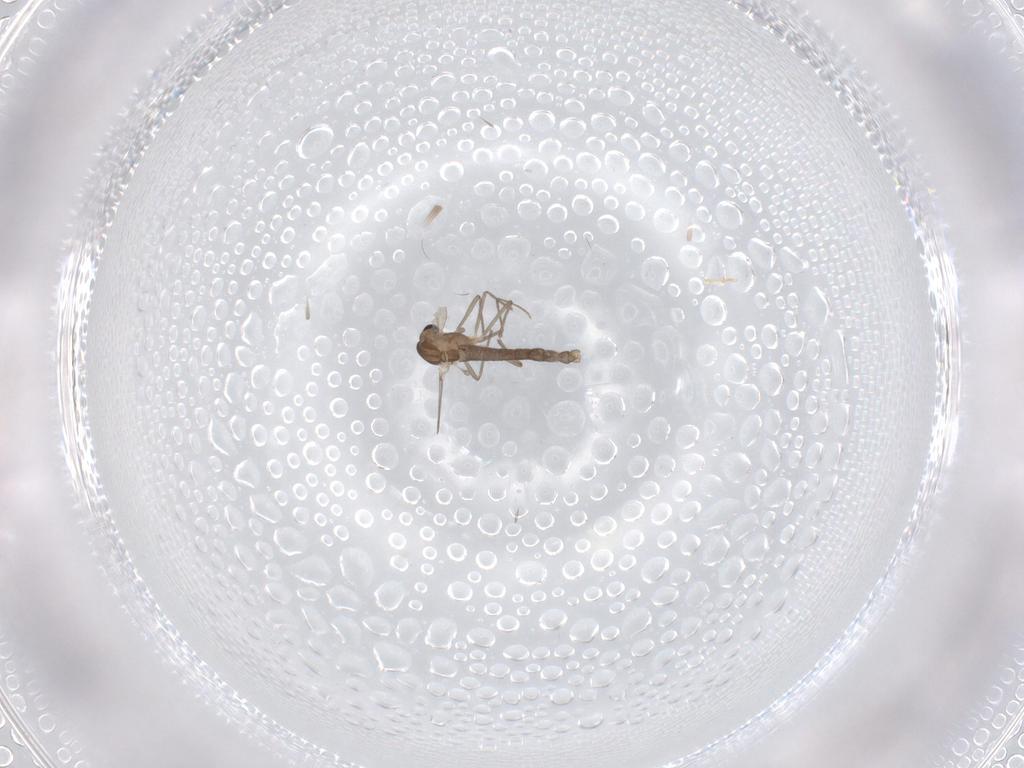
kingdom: Animalia
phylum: Arthropoda
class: Insecta
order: Diptera
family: Chironomidae
